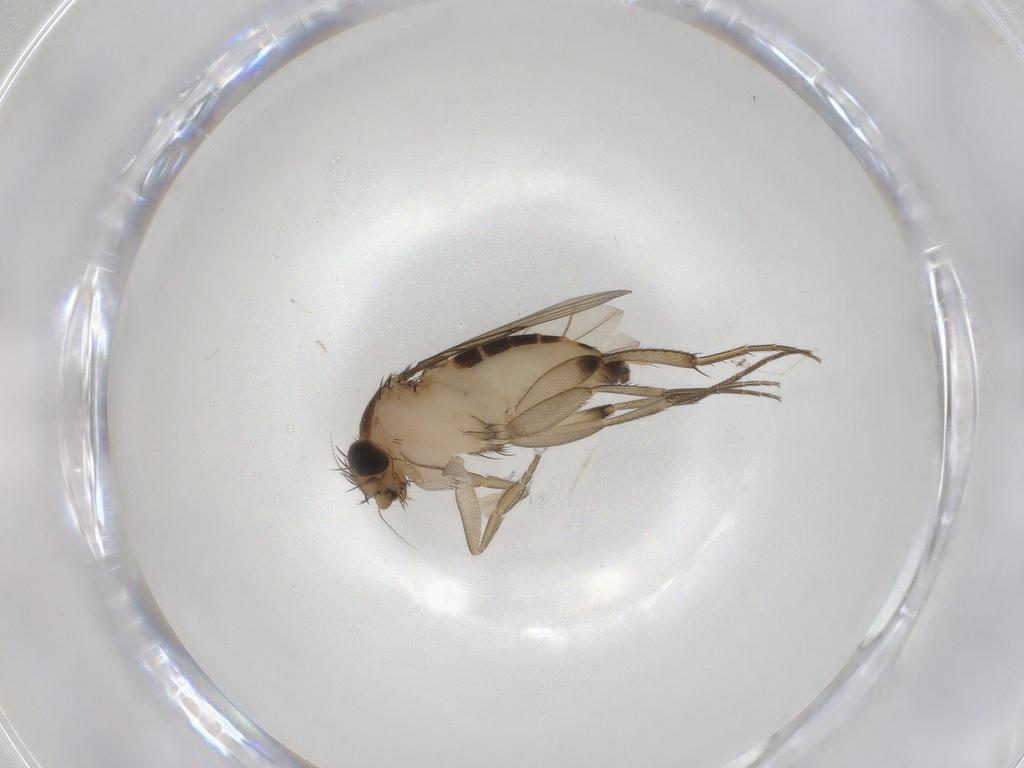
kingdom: Animalia
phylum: Arthropoda
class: Insecta
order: Diptera
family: Phoridae
